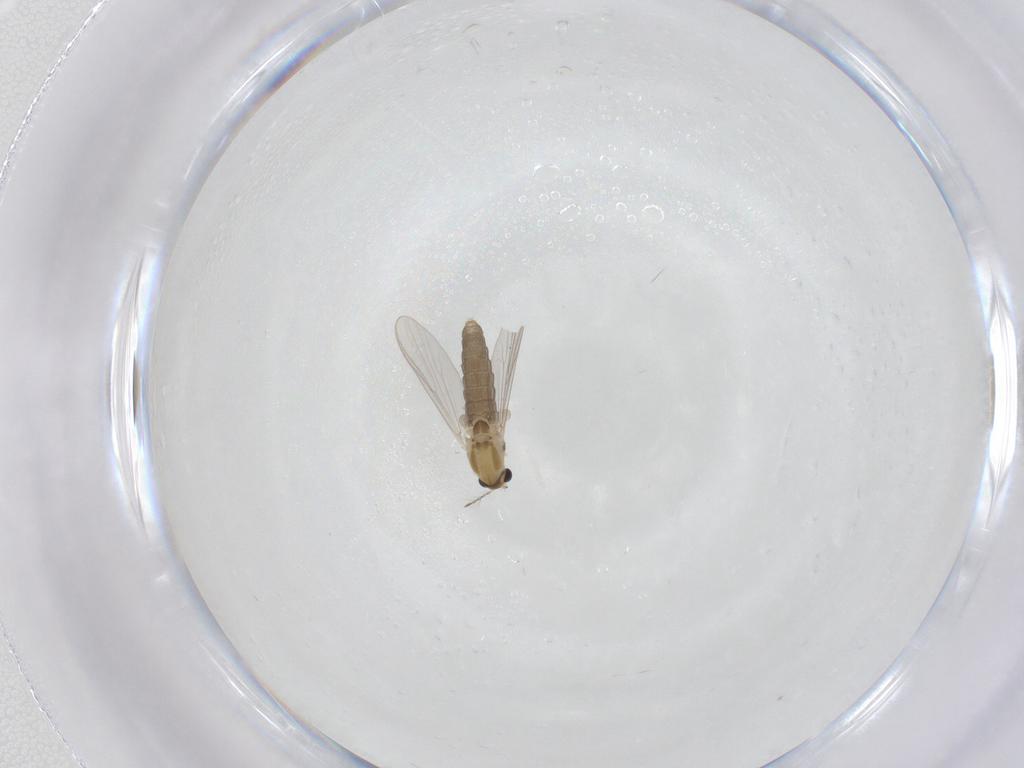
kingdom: Animalia
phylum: Arthropoda
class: Insecta
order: Diptera
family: Chironomidae
